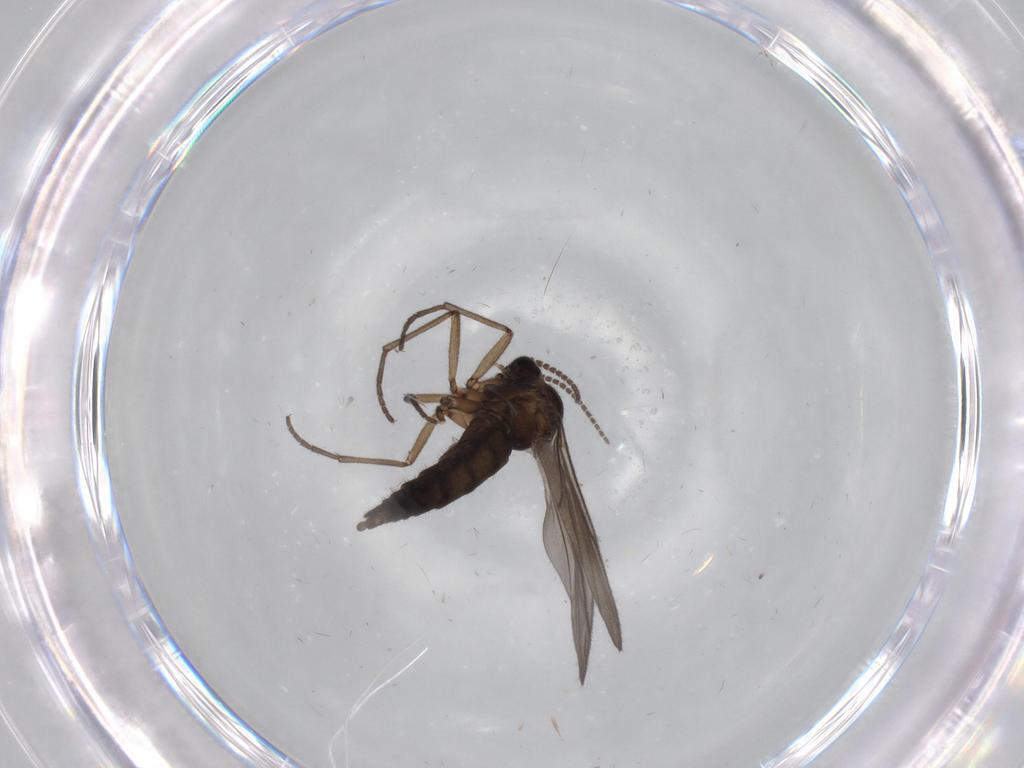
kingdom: Animalia
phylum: Arthropoda
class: Insecta
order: Diptera
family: Sciaridae
